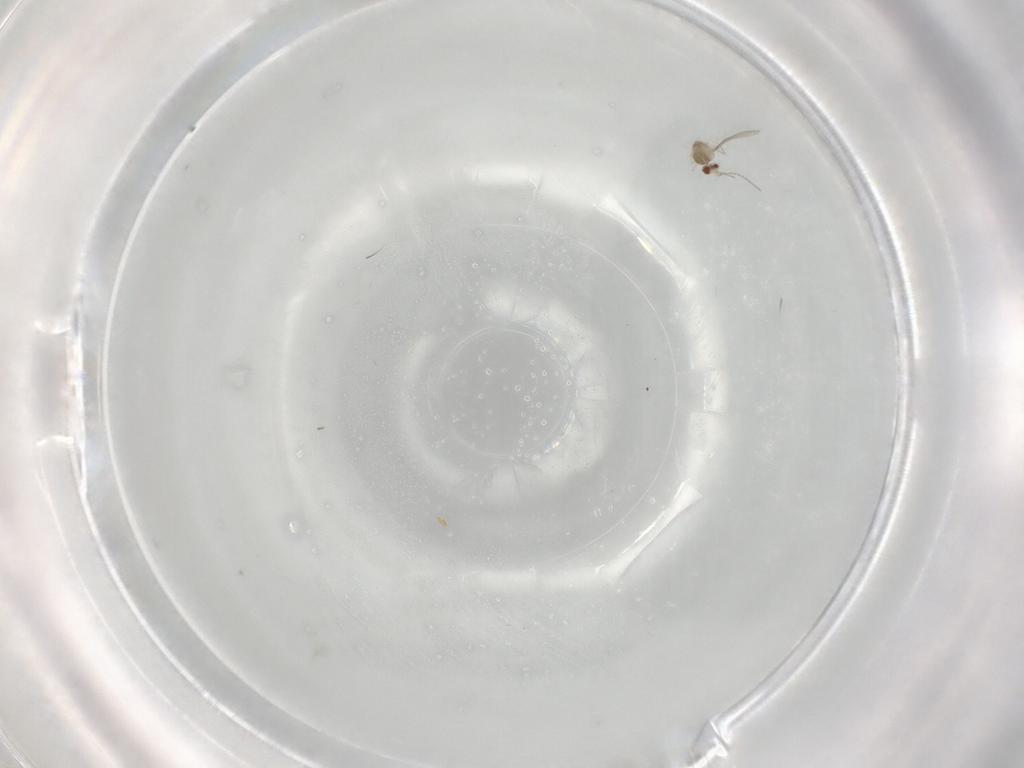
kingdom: Animalia
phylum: Arthropoda
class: Insecta
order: Diptera
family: Cecidomyiidae
